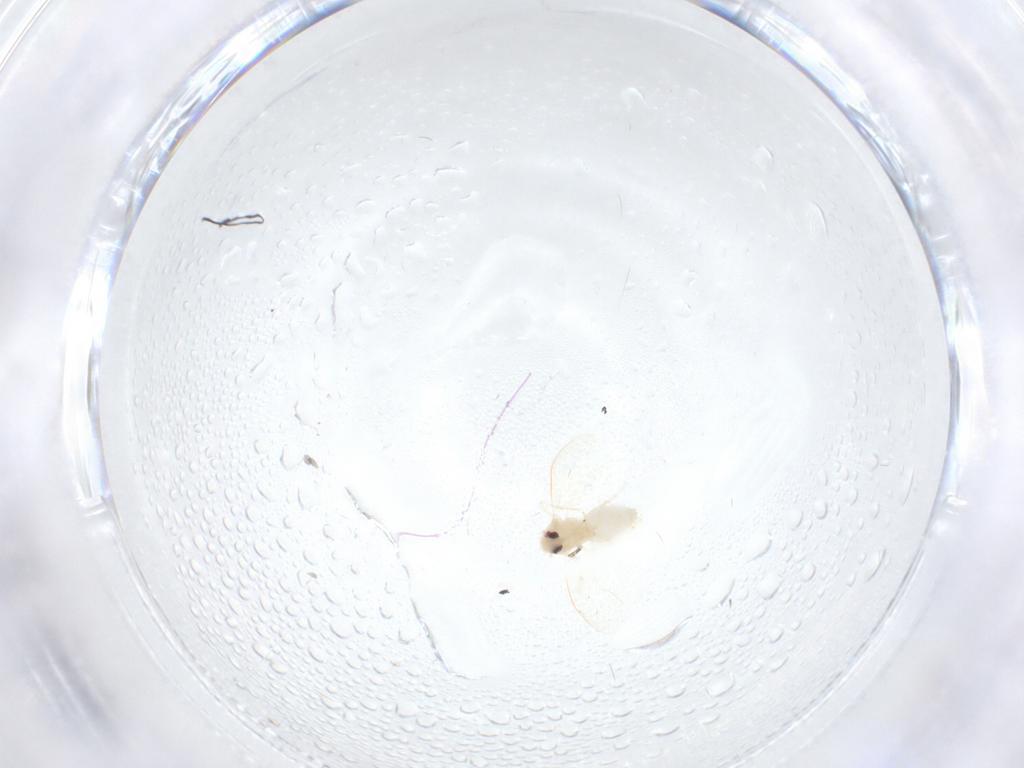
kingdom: Animalia
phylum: Arthropoda
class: Insecta
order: Hemiptera
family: Aleyrodidae
